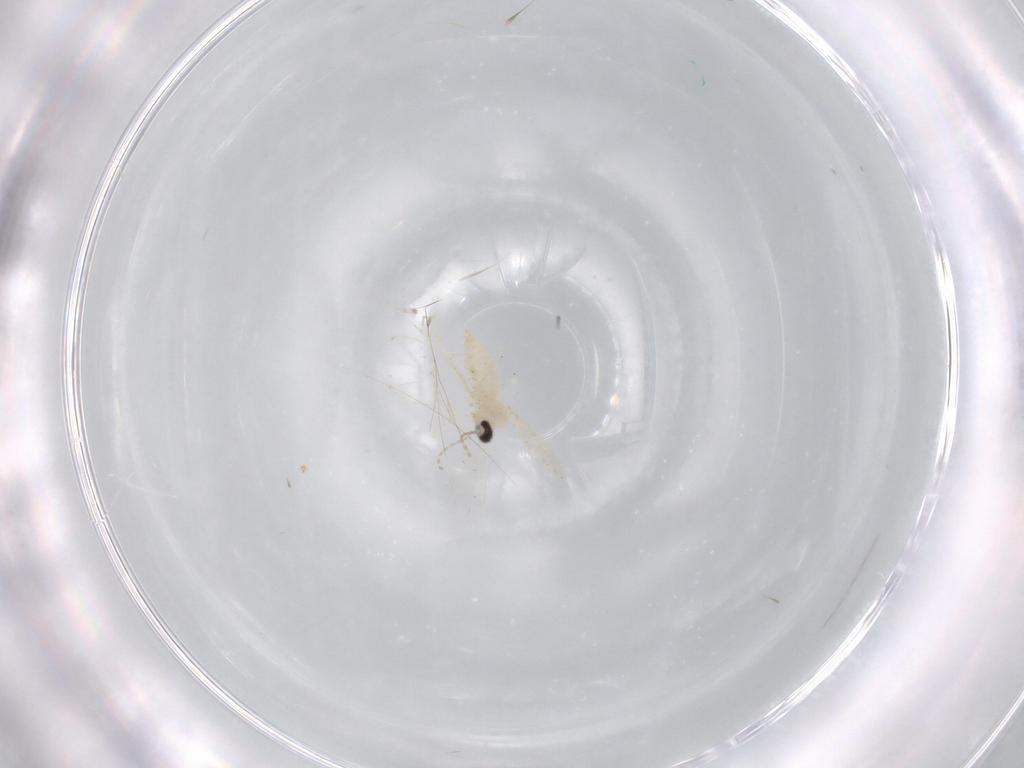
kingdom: Animalia
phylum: Arthropoda
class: Insecta
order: Diptera
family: Cecidomyiidae
